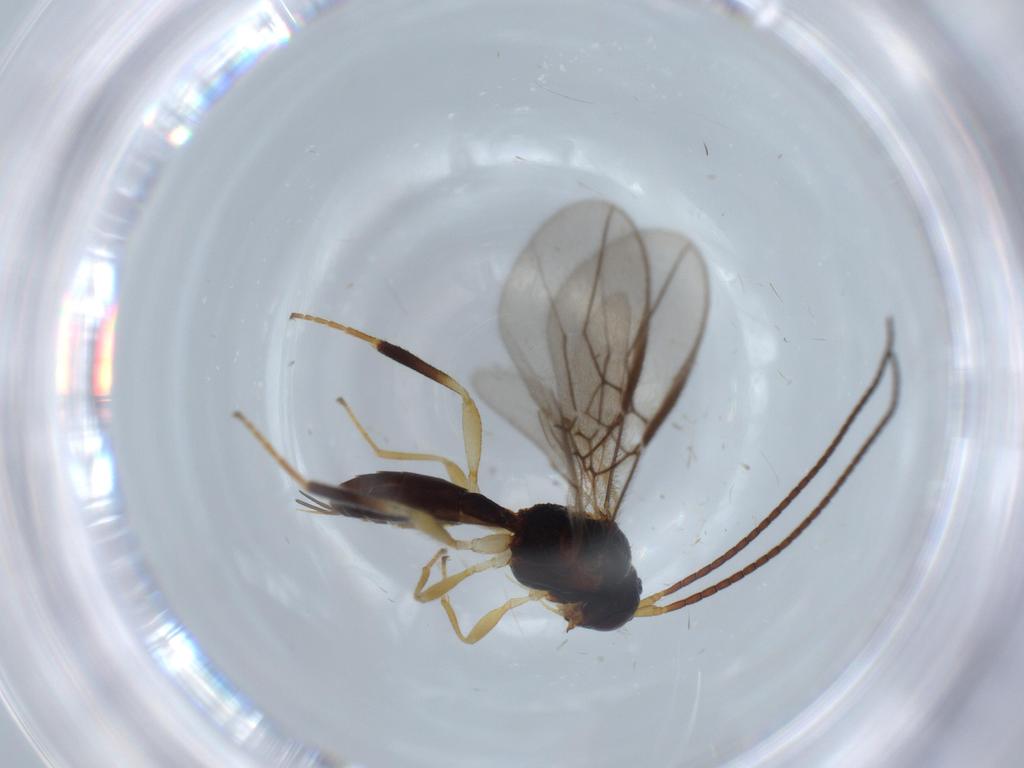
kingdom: Animalia
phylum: Arthropoda
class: Insecta
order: Hymenoptera
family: Braconidae
